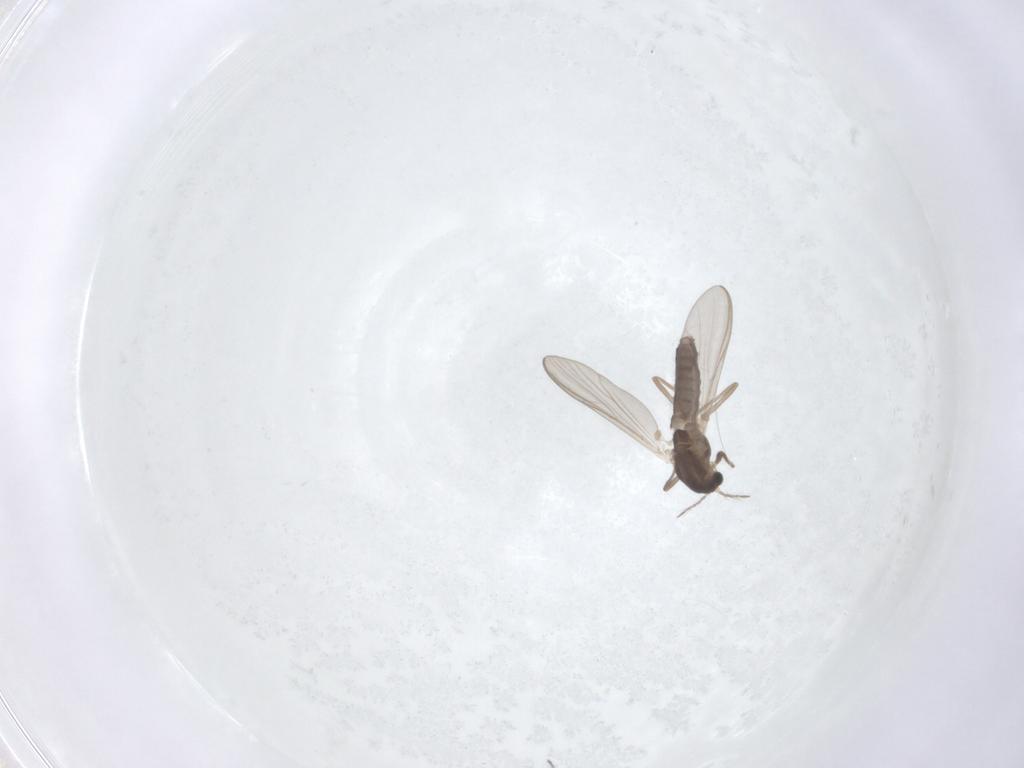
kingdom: Animalia
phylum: Arthropoda
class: Insecta
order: Diptera
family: Chironomidae
